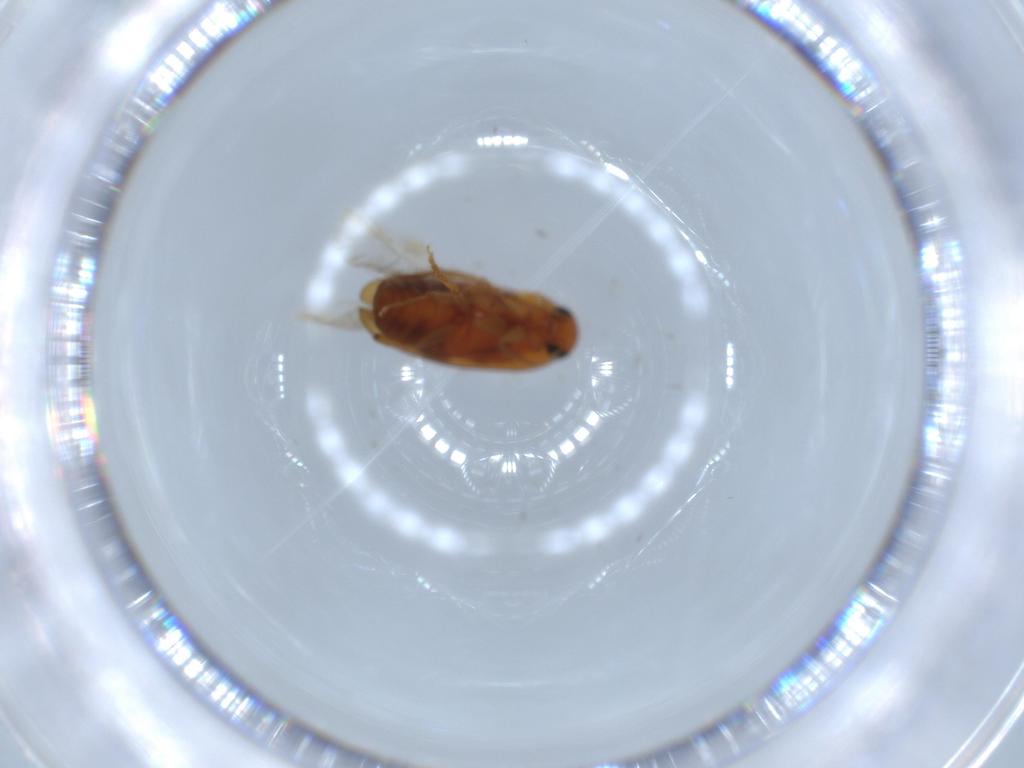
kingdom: Animalia
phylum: Arthropoda
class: Insecta
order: Coleoptera
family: Scraptiidae
